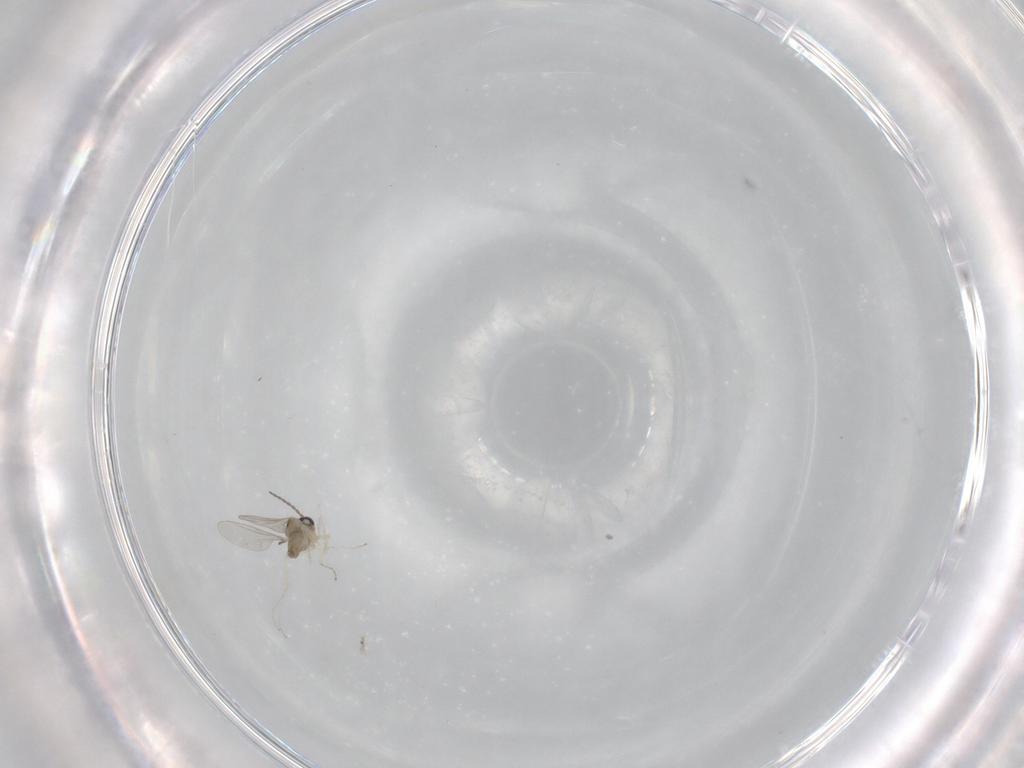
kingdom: Animalia
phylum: Arthropoda
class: Insecta
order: Diptera
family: Cecidomyiidae
